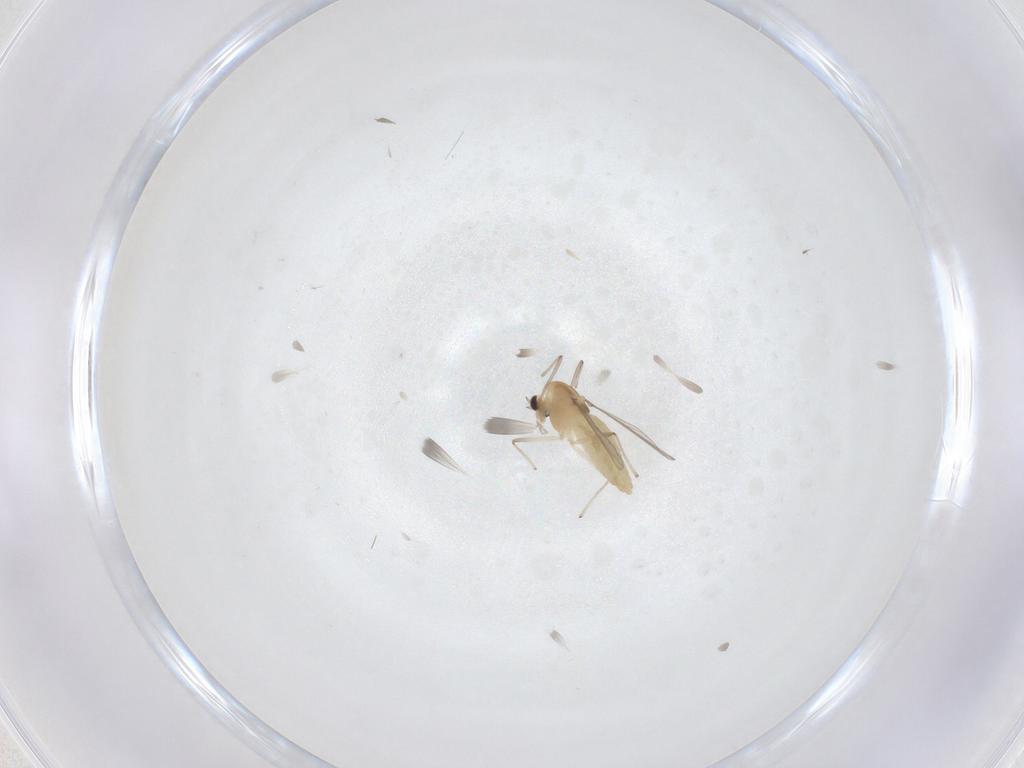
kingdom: Animalia
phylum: Arthropoda
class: Insecta
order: Diptera
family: Chironomidae
